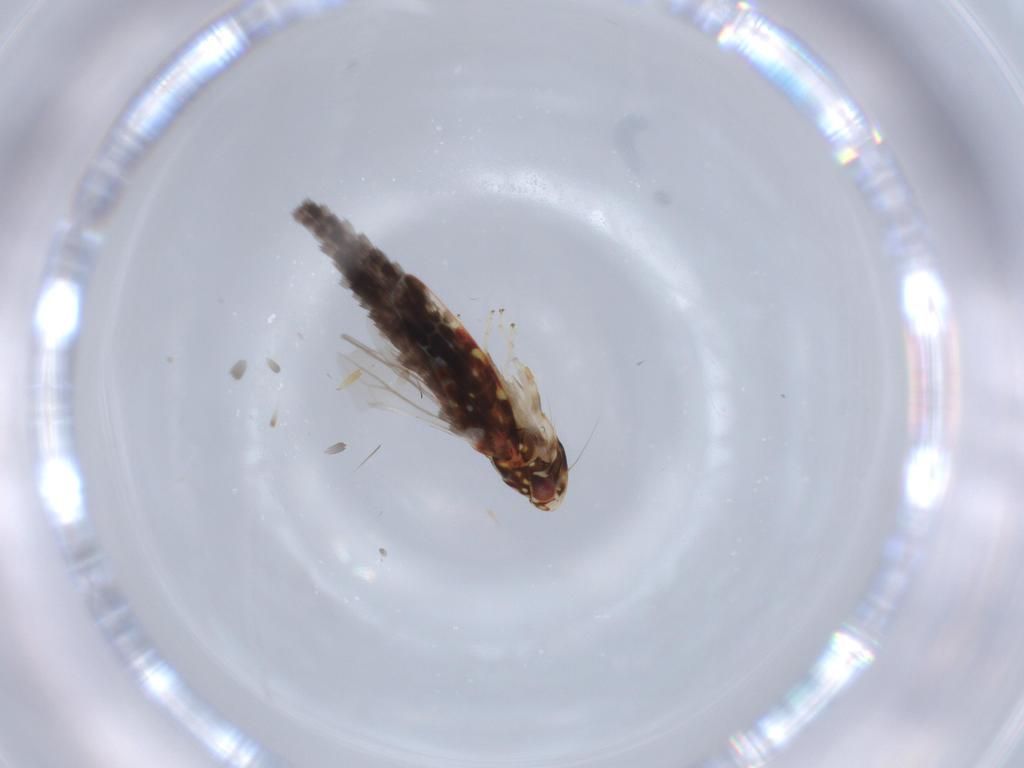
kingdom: Animalia
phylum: Arthropoda
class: Insecta
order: Hemiptera
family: Cicadellidae
